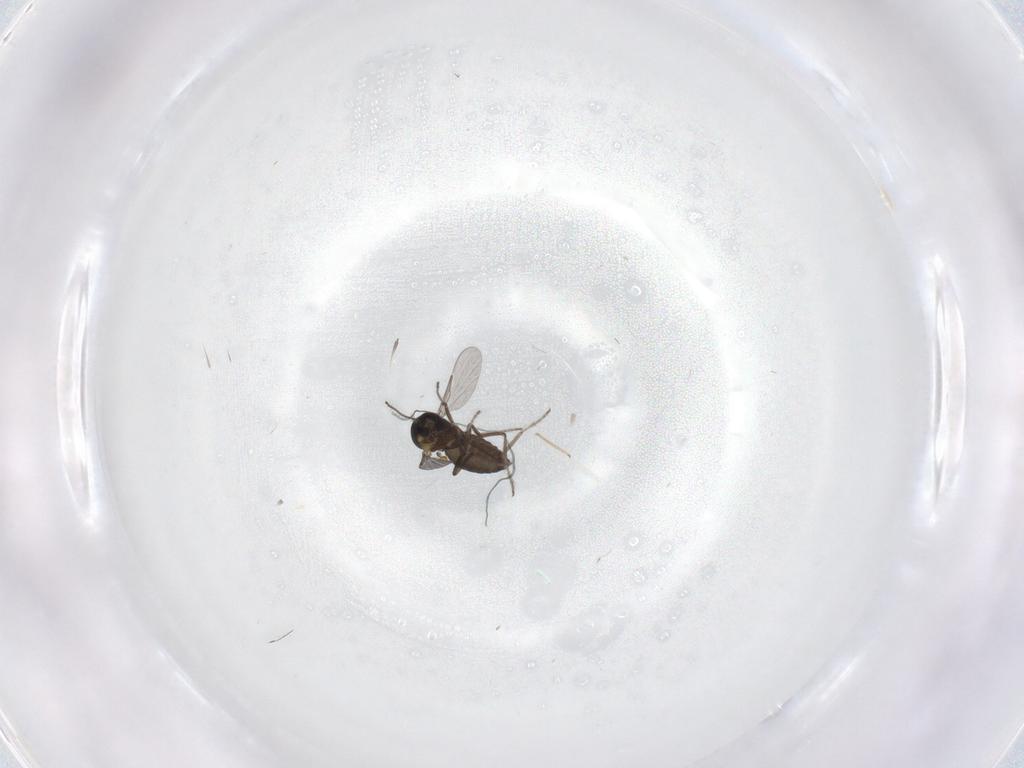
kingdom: Animalia
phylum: Arthropoda
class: Insecta
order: Diptera
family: Ceratopogonidae
